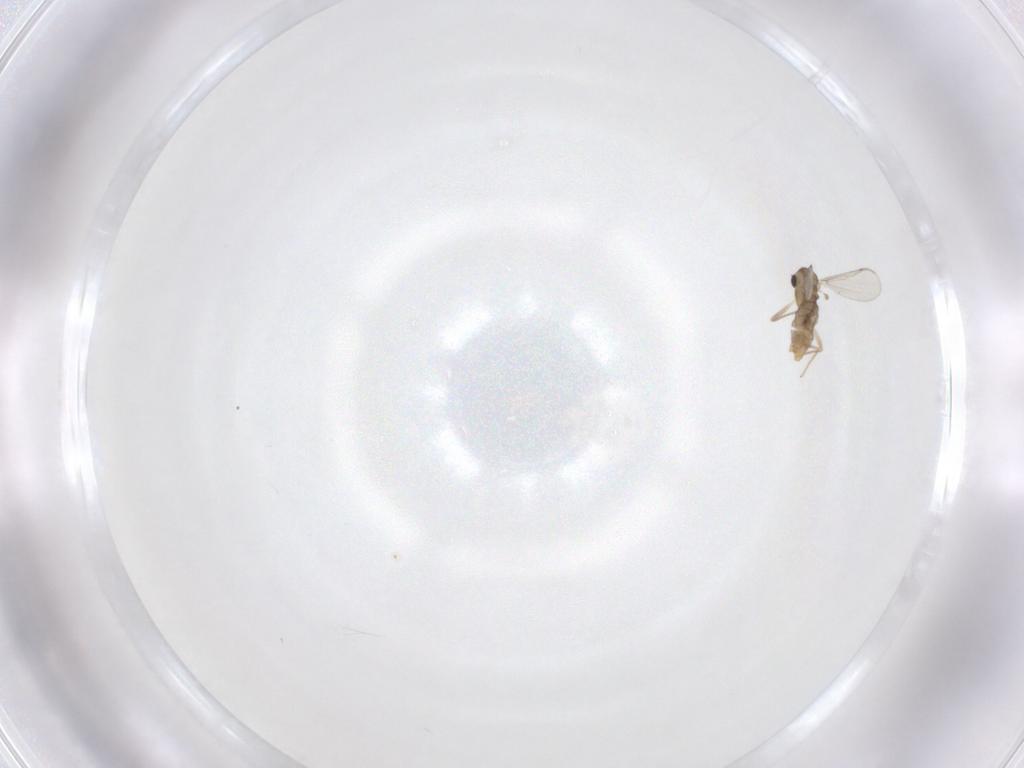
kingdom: Animalia
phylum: Arthropoda
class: Insecta
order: Diptera
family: Chironomidae
